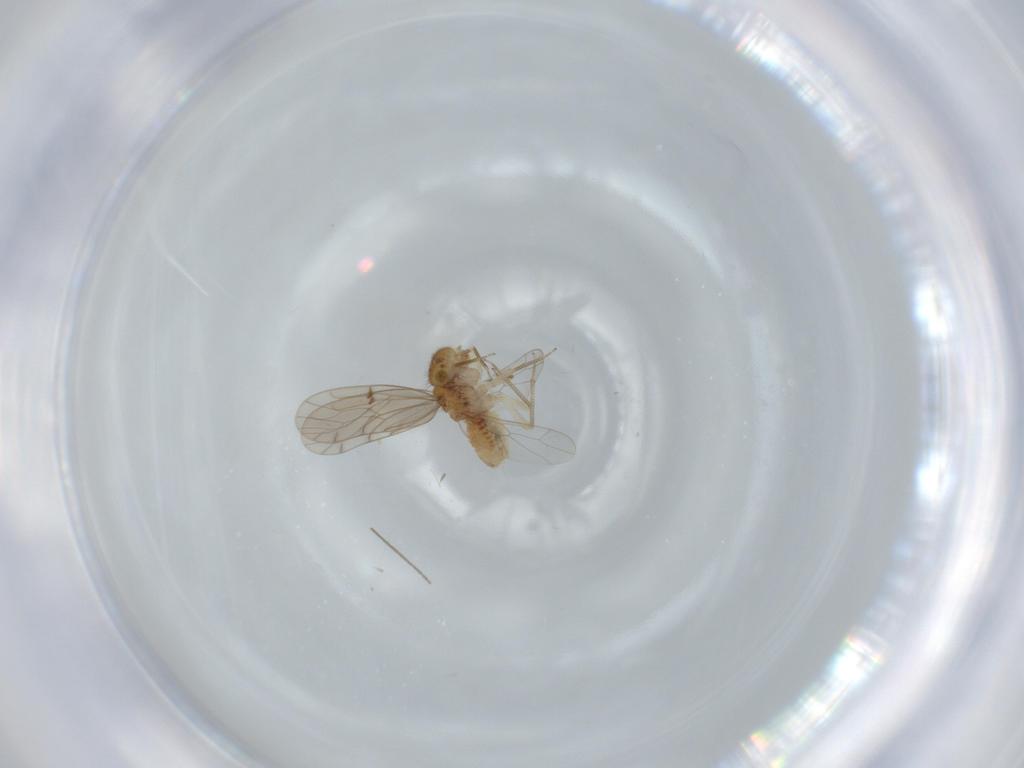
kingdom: Animalia
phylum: Arthropoda
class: Insecta
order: Psocodea
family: Ectopsocidae
